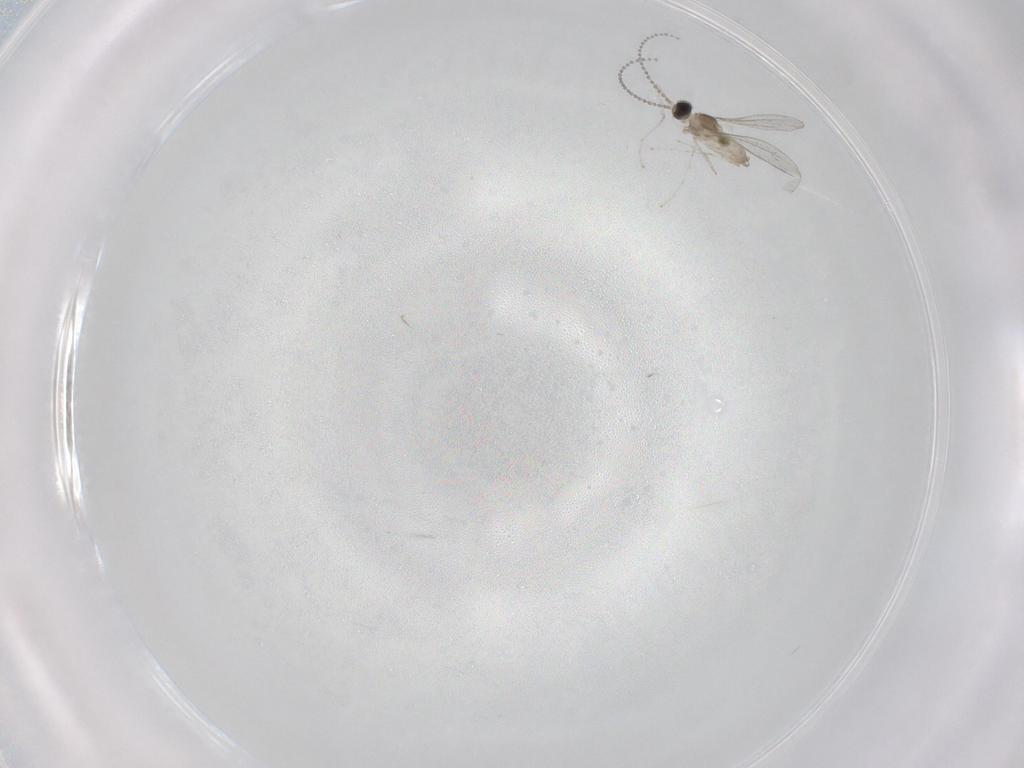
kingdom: Animalia
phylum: Arthropoda
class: Insecta
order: Diptera
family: Cecidomyiidae
